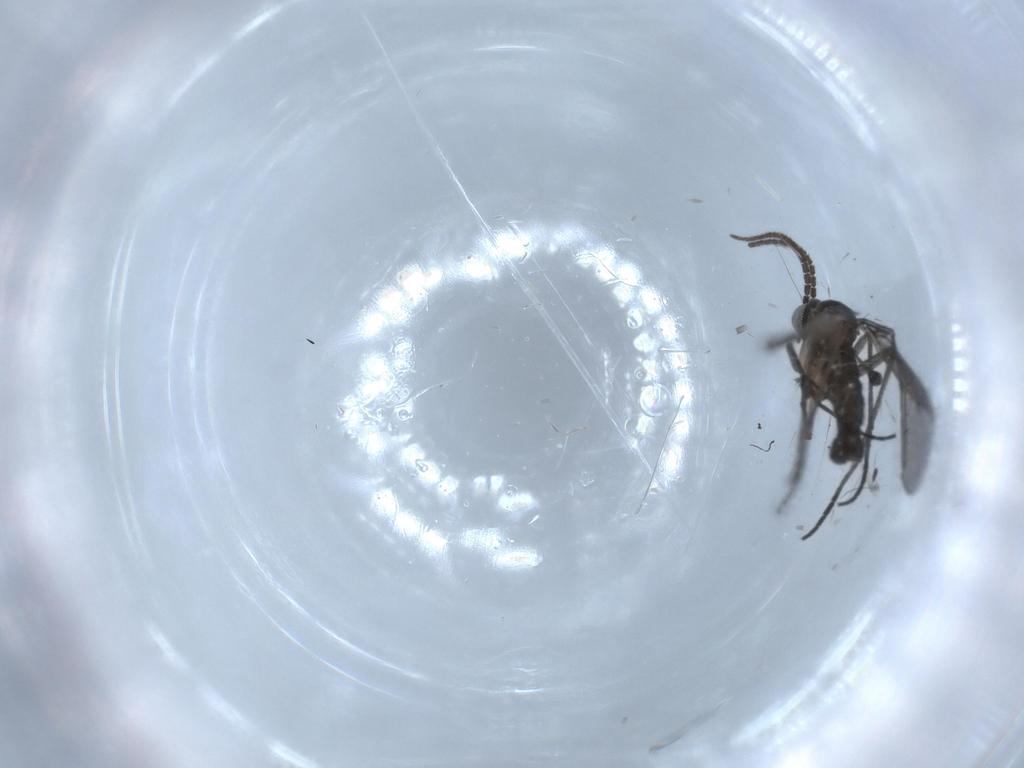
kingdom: Animalia
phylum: Arthropoda
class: Insecta
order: Diptera
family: Sciaridae
